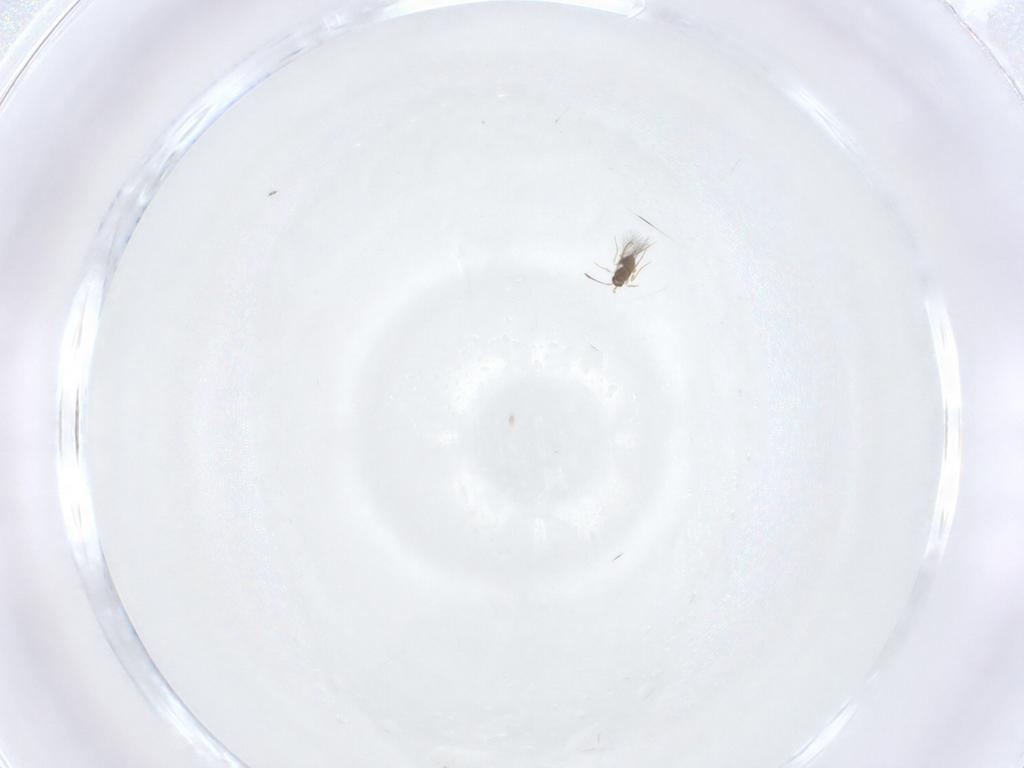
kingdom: Animalia
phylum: Arthropoda
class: Insecta
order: Hymenoptera
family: Mymaridae
